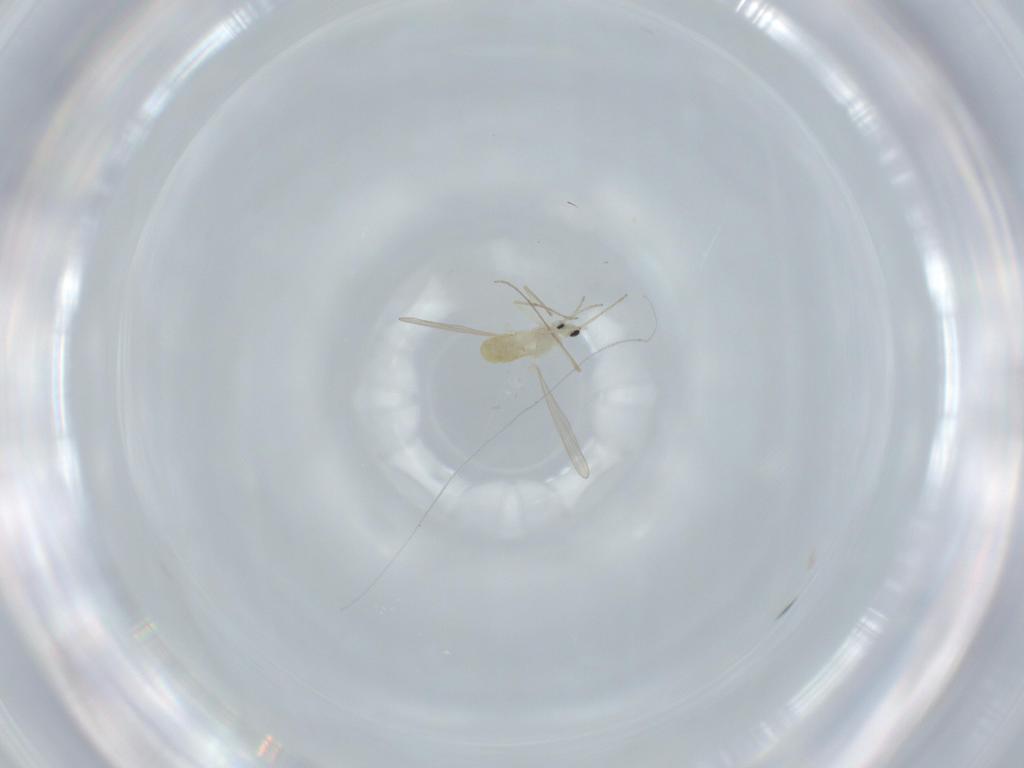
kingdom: Animalia
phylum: Arthropoda
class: Insecta
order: Diptera
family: Chironomidae
